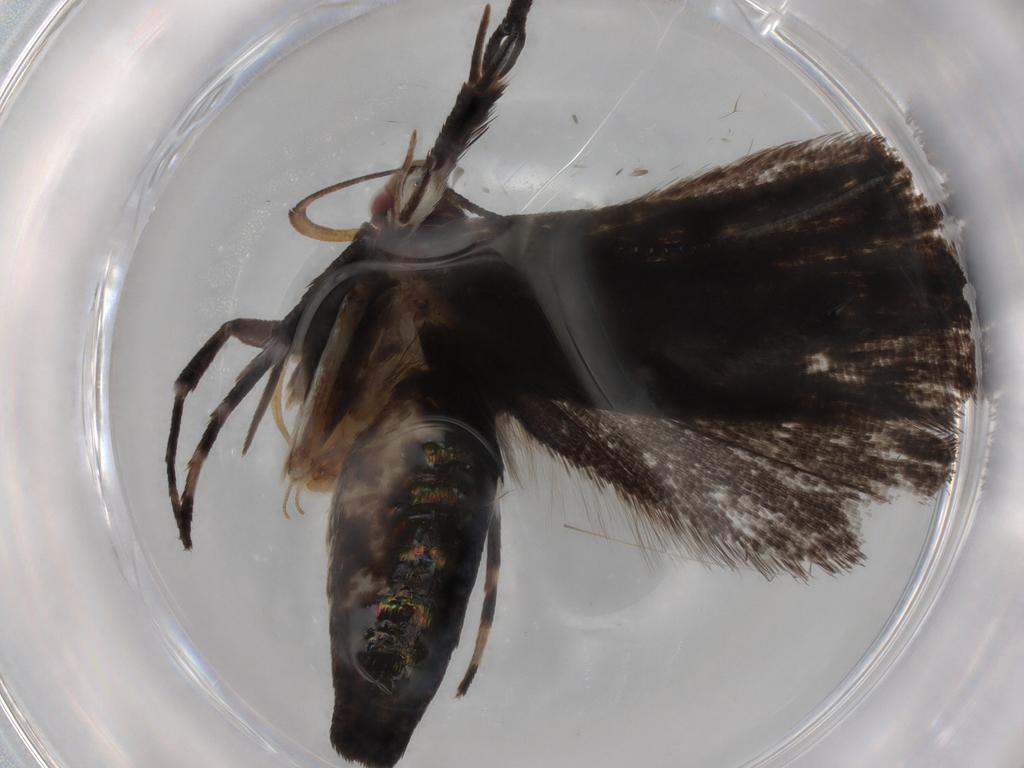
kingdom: Animalia
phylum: Arthropoda
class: Insecta
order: Lepidoptera
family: Gelechiidae
